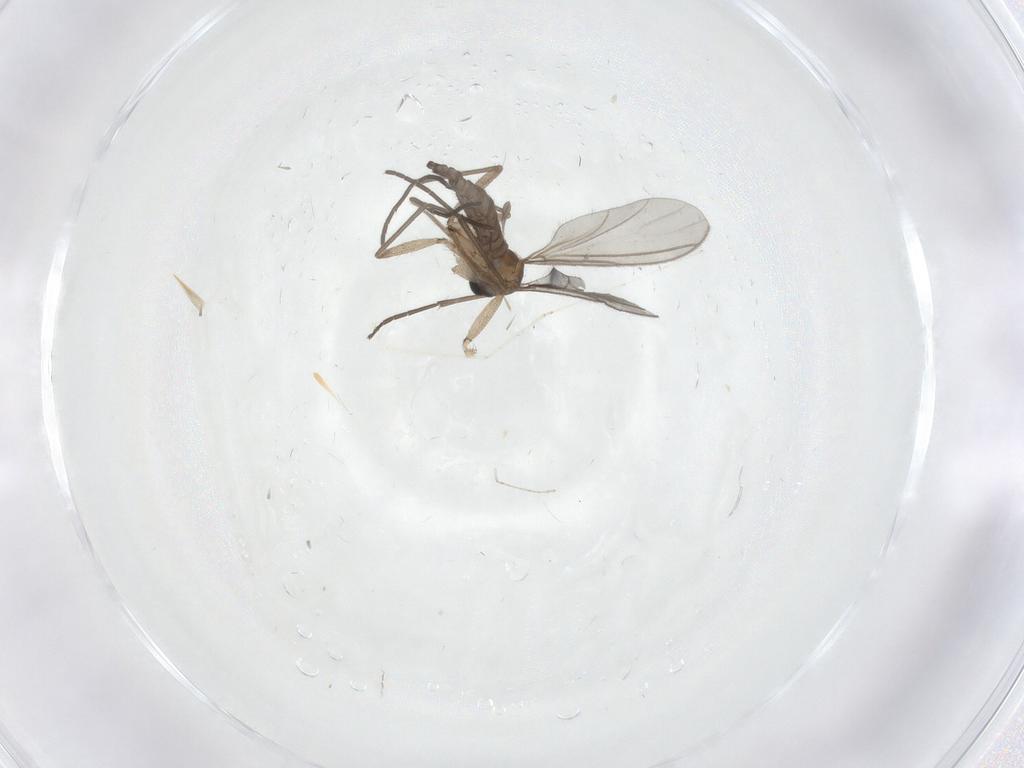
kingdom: Animalia
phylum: Arthropoda
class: Insecta
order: Diptera
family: Sciaridae
